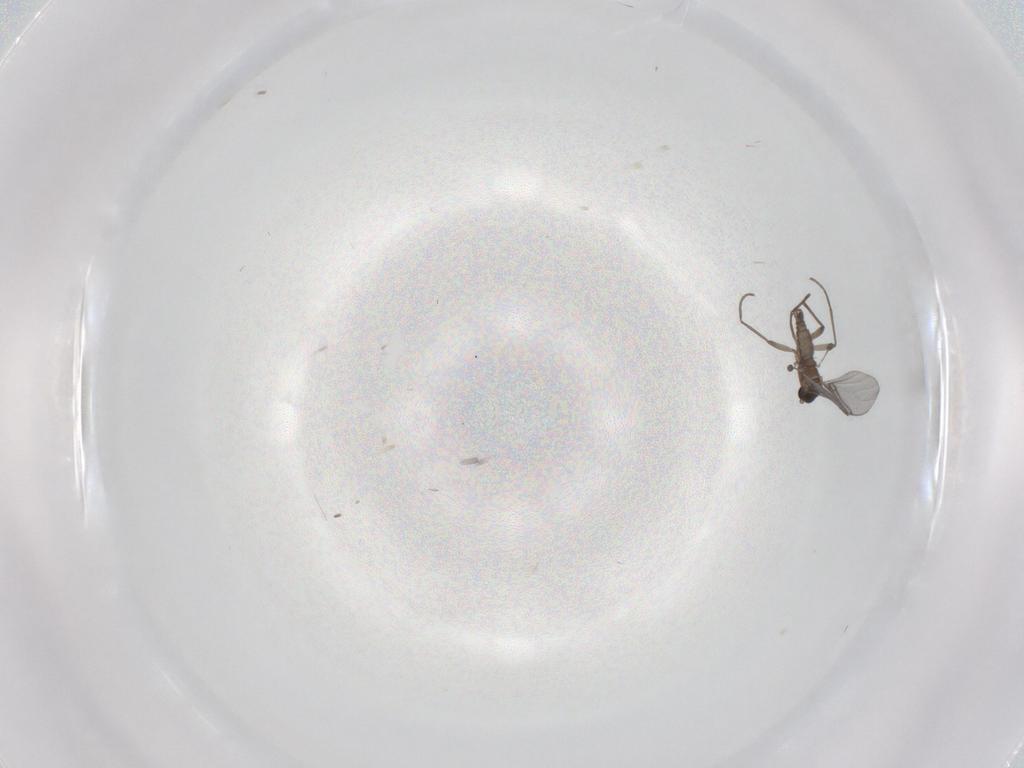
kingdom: Animalia
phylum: Arthropoda
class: Insecta
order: Diptera
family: Sciaridae
